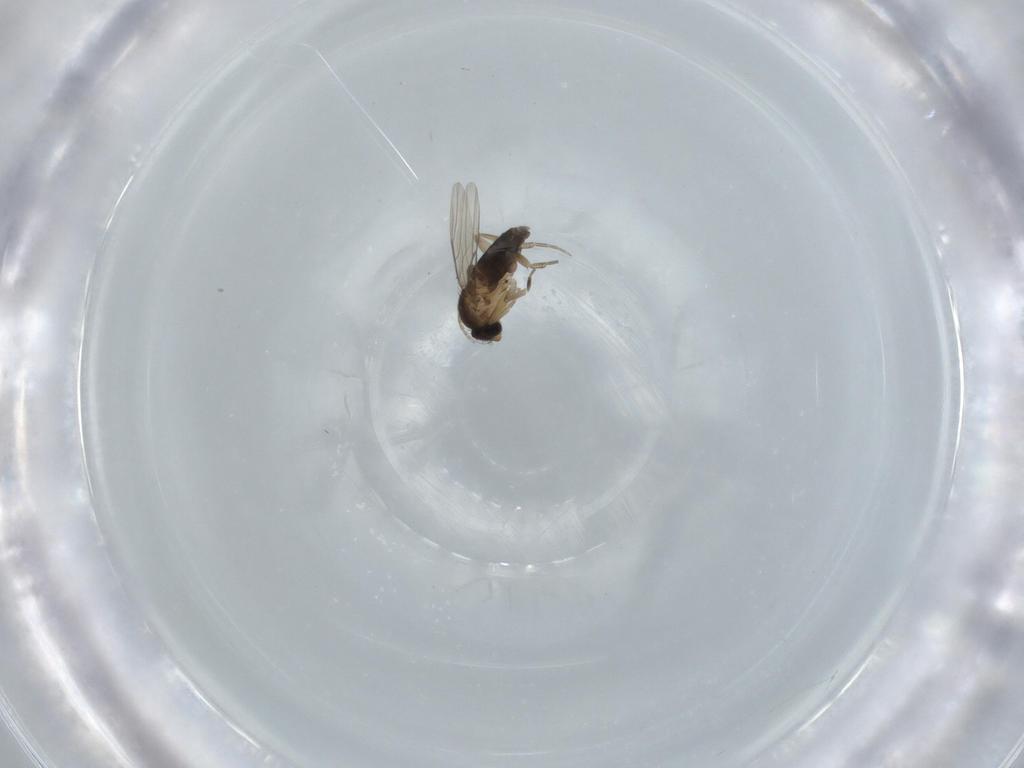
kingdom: Animalia
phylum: Arthropoda
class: Insecta
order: Diptera
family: Phoridae
